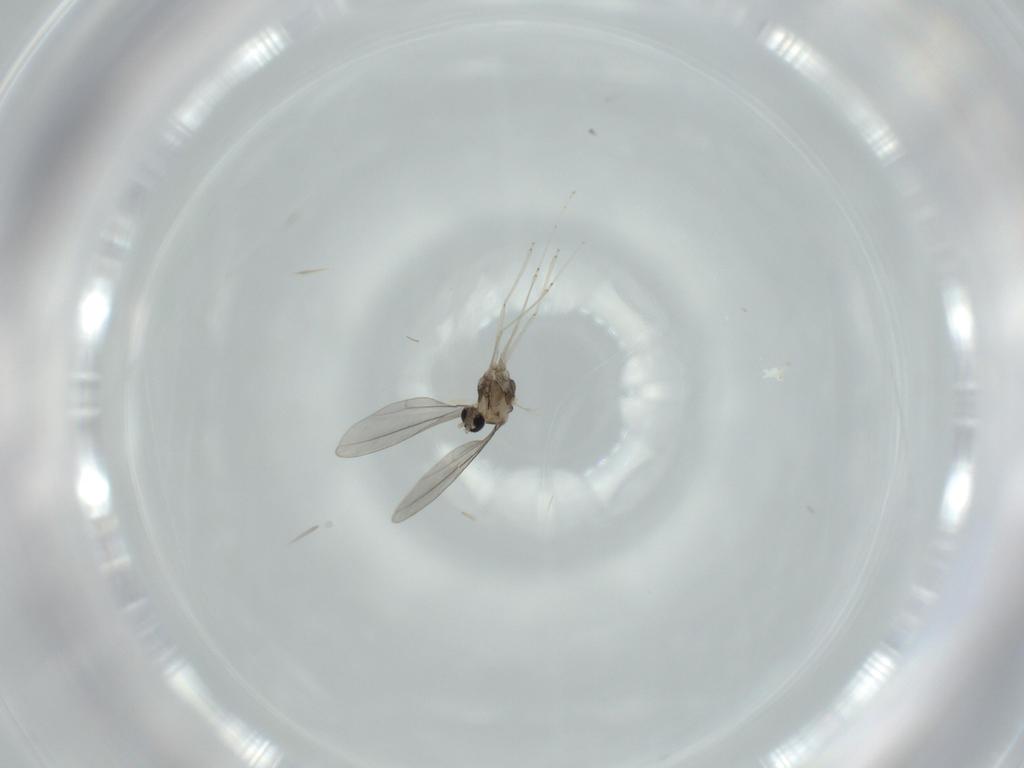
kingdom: Animalia
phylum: Arthropoda
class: Insecta
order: Diptera
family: Cecidomyiidae
